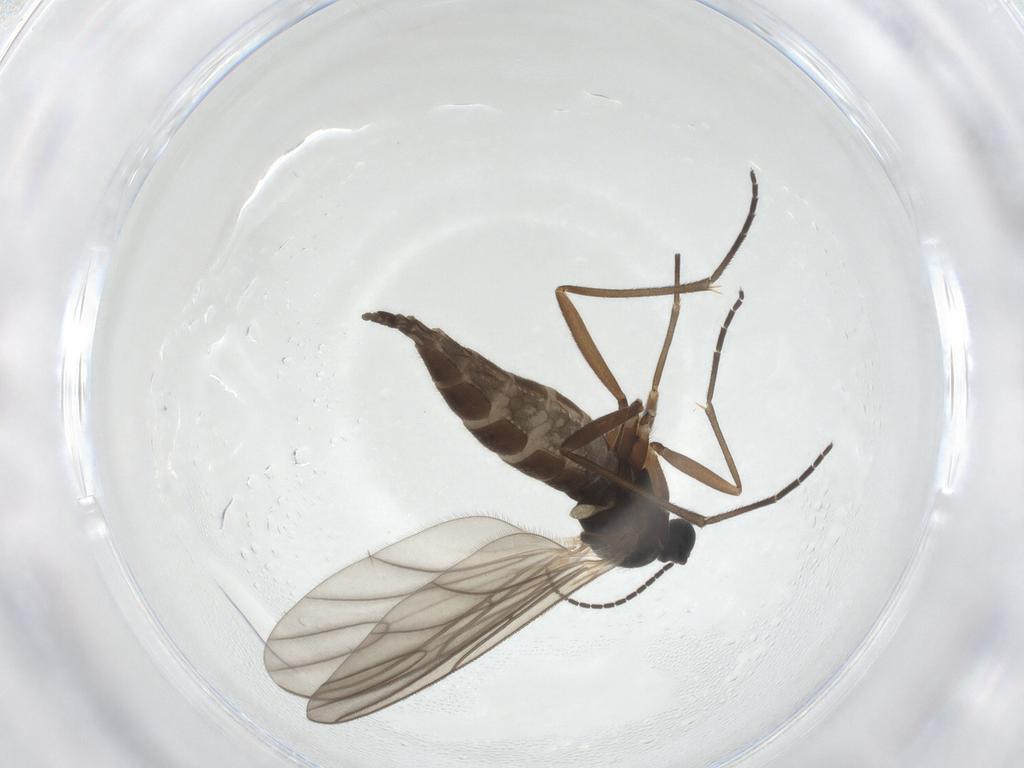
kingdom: Animalia
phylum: Arthropoda
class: Insecta
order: Diptera
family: Sciaridae
